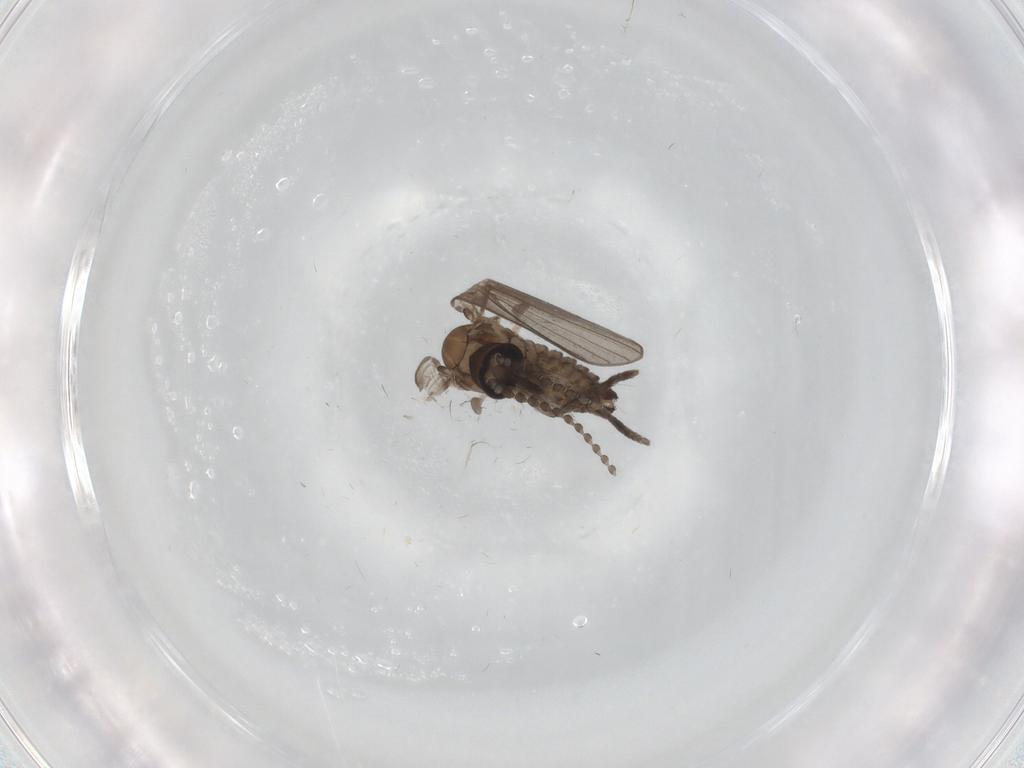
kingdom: Animalia
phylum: Arthropoda
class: Insecta
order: Diptera
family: Psychodidae
